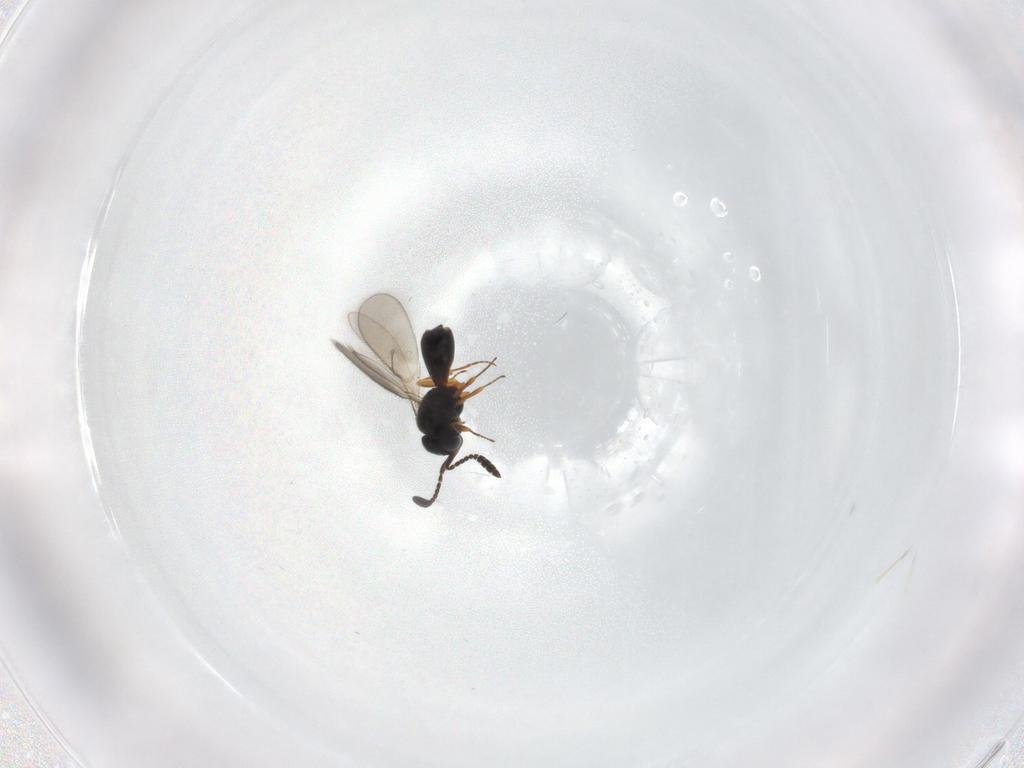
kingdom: Animalia
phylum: Arthropoda
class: Insecta
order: Hymenoptera
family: Scelionidae
